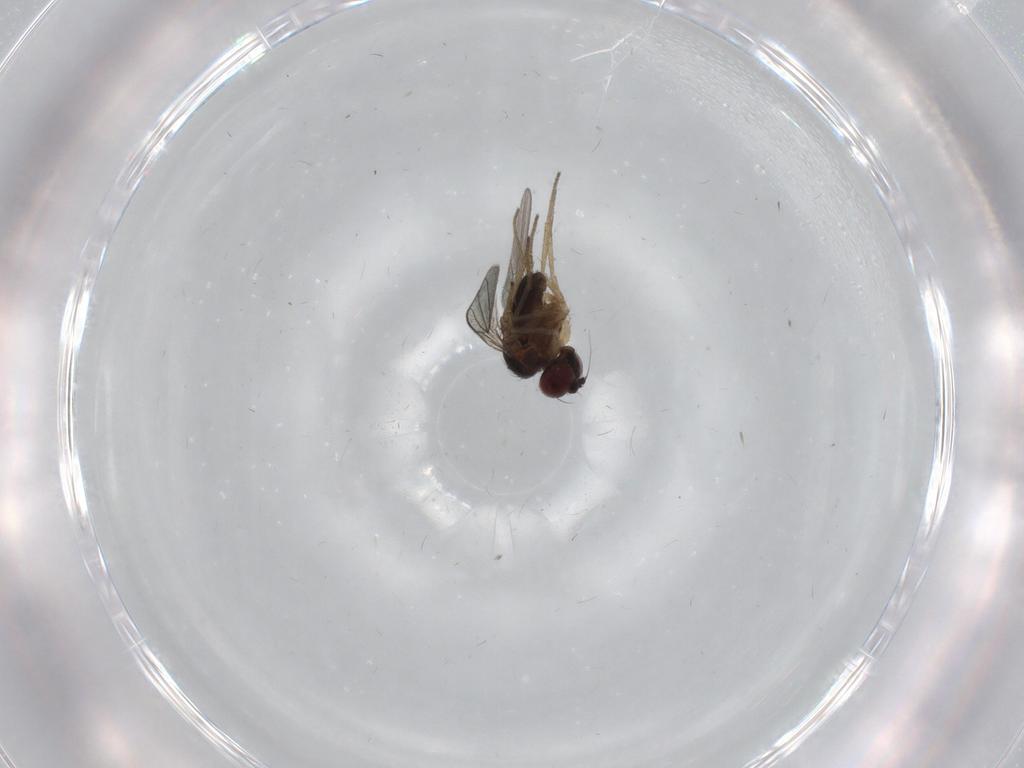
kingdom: Animalia
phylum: Arthropoda
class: Insecta
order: Diptera
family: Dolichopodidae
